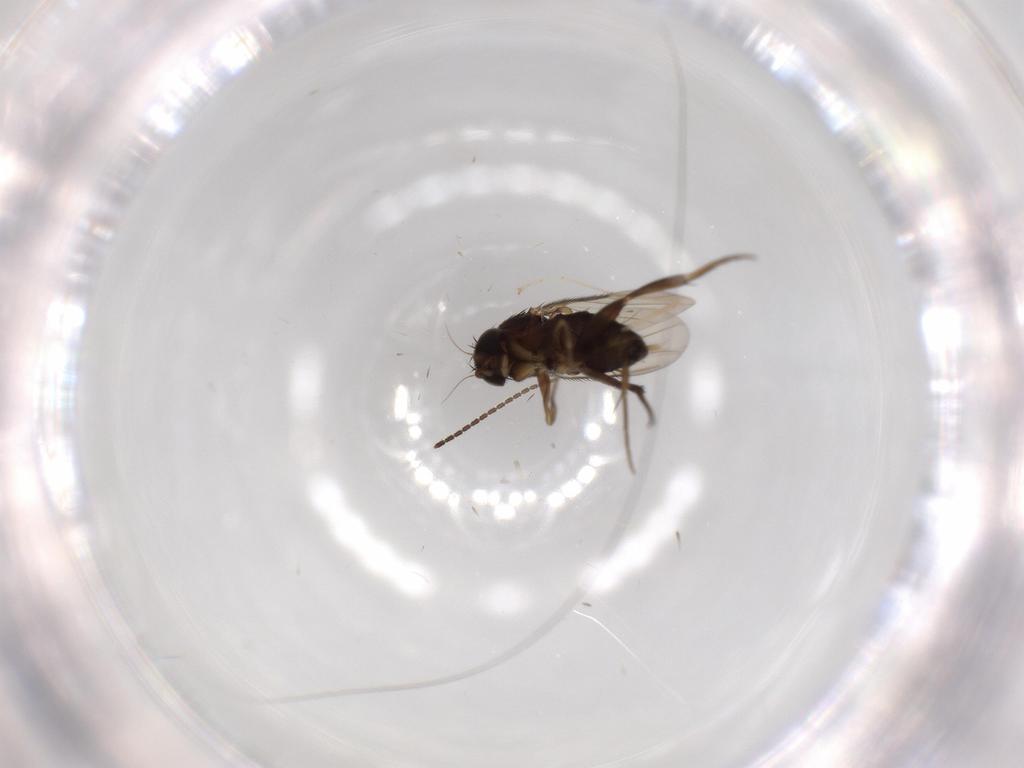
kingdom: Animalia
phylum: Arthropoda
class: Insecta
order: Diptera
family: Phoridae
